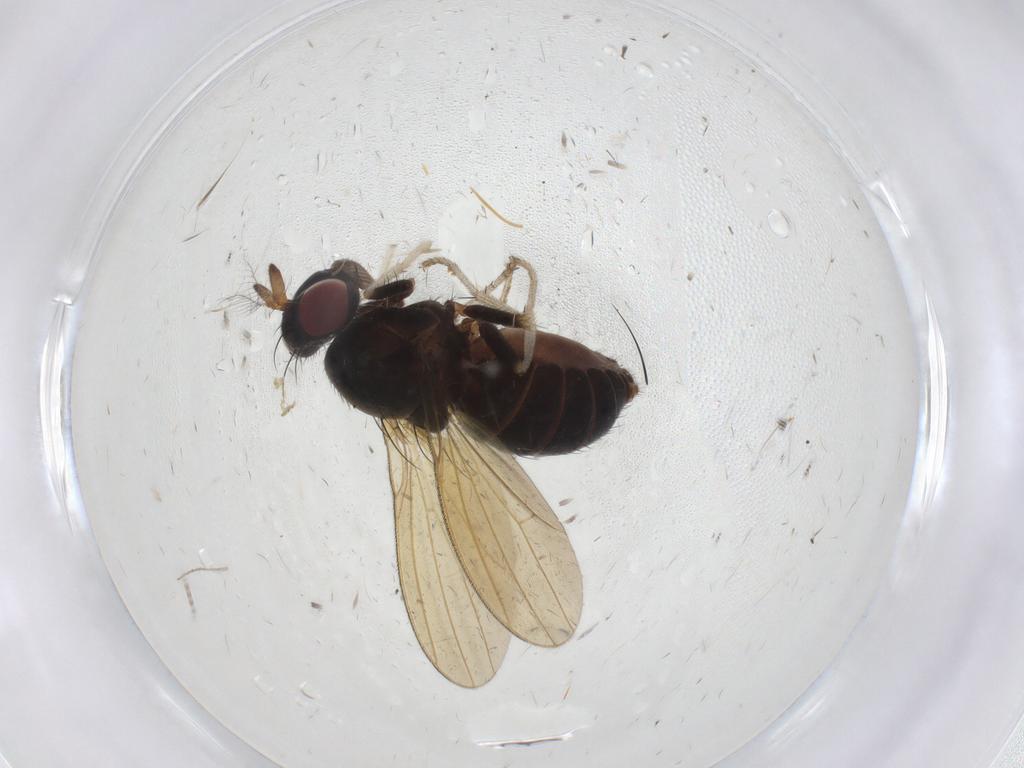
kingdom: Animalia
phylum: Arthropoda
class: Insecta
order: Diptera
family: Lauxaniidae
